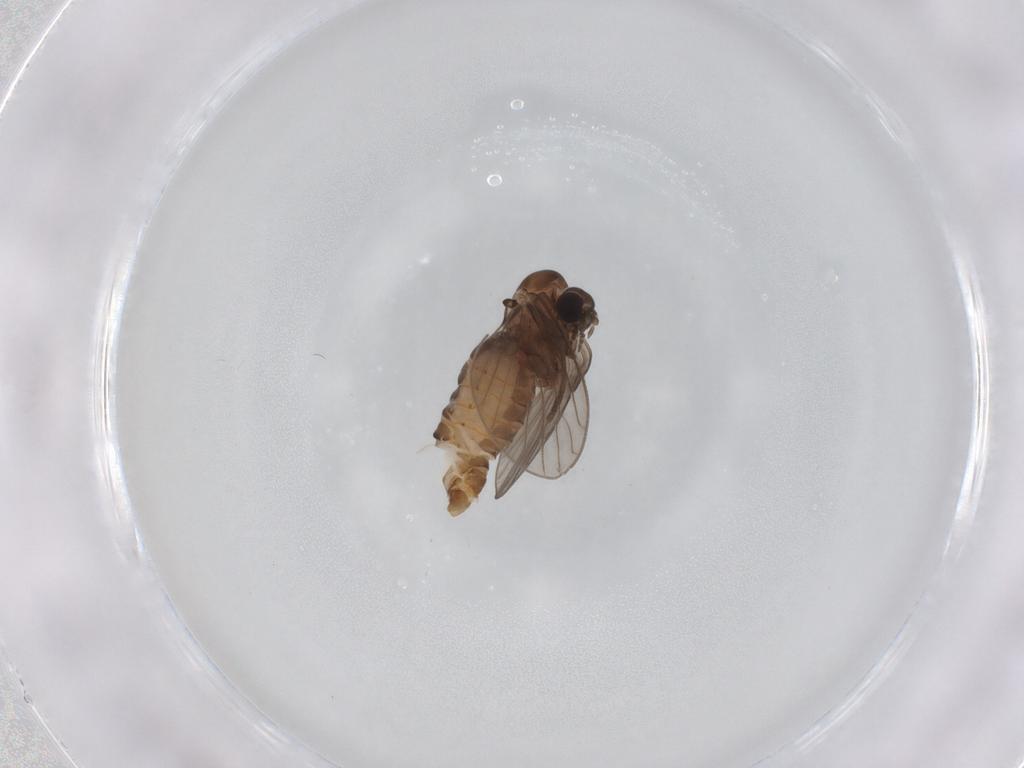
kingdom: Animalia
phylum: Arthropoda
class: Insecta
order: Diptera
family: Psychodidae
